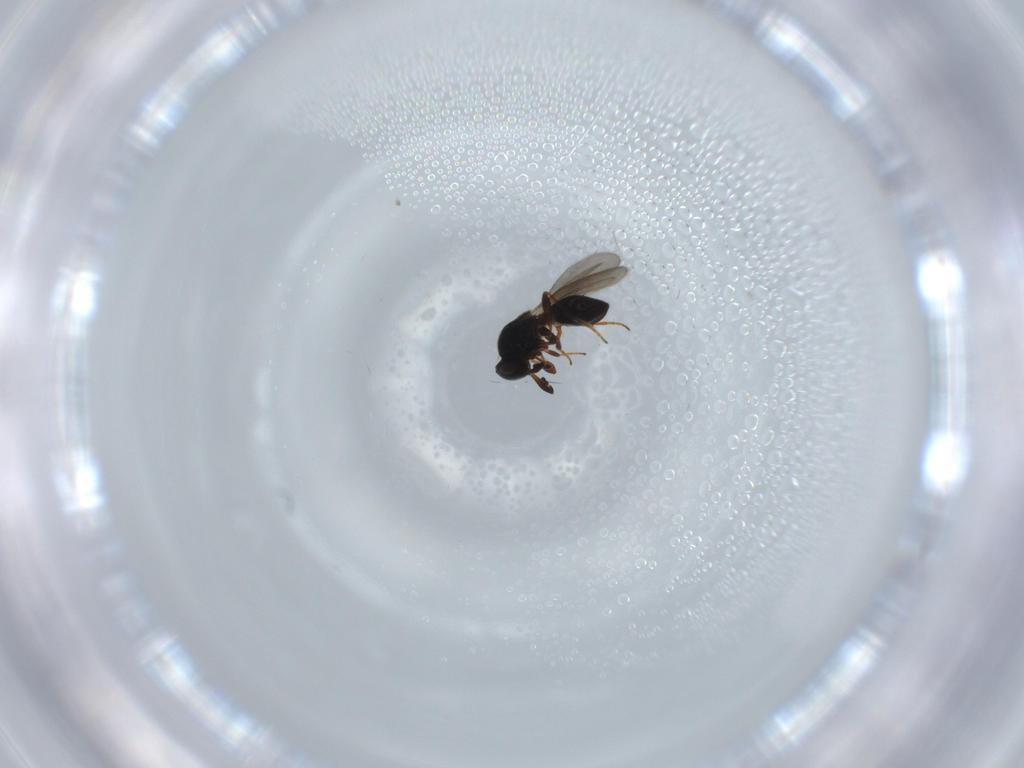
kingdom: Animalia
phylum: Arthropoda
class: Insecta
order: Hymenoptera
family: Platygastridae
